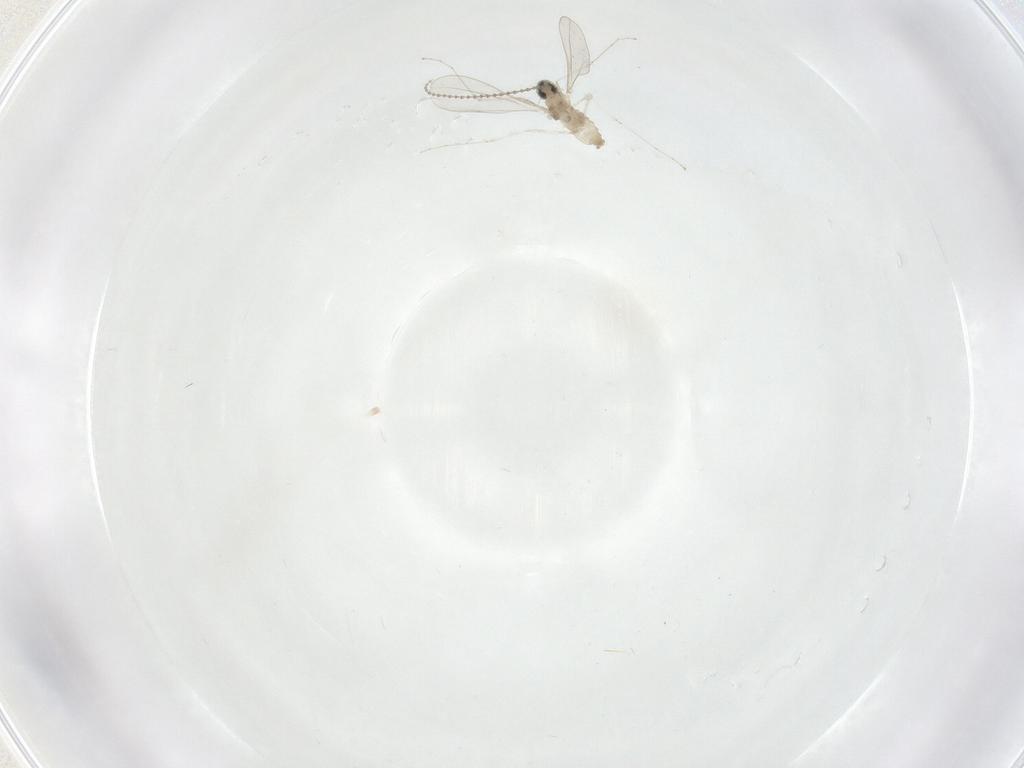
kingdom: Animalia
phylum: Arthropoda
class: Insecta
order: Diptera
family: Cecidomyiidae
